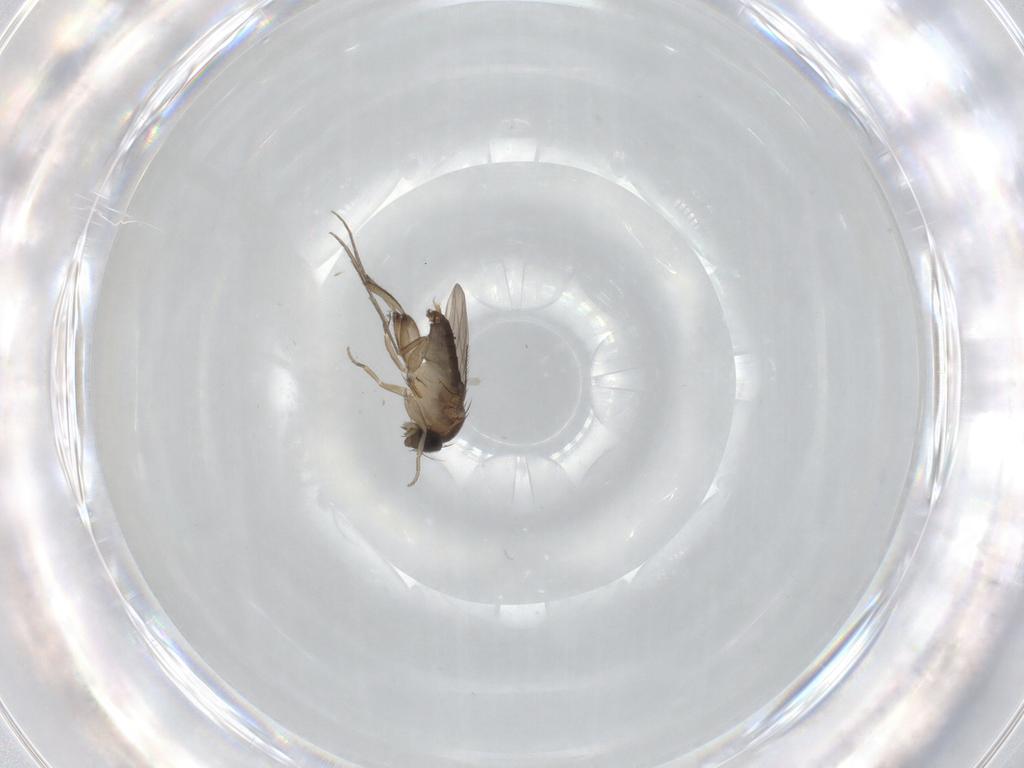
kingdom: Animalia
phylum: Arthropoda
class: Insecta
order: Diptera
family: Phoridae
